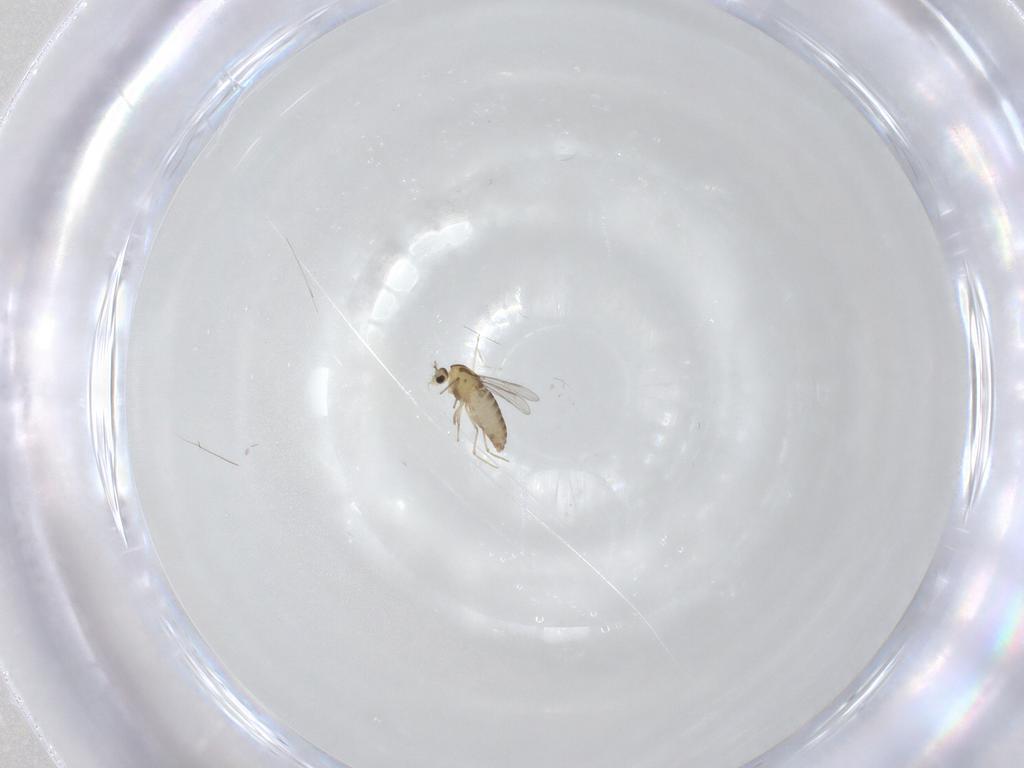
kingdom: Animalia
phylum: Arthropoda
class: Insecta
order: Diptera
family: Chironomidae
